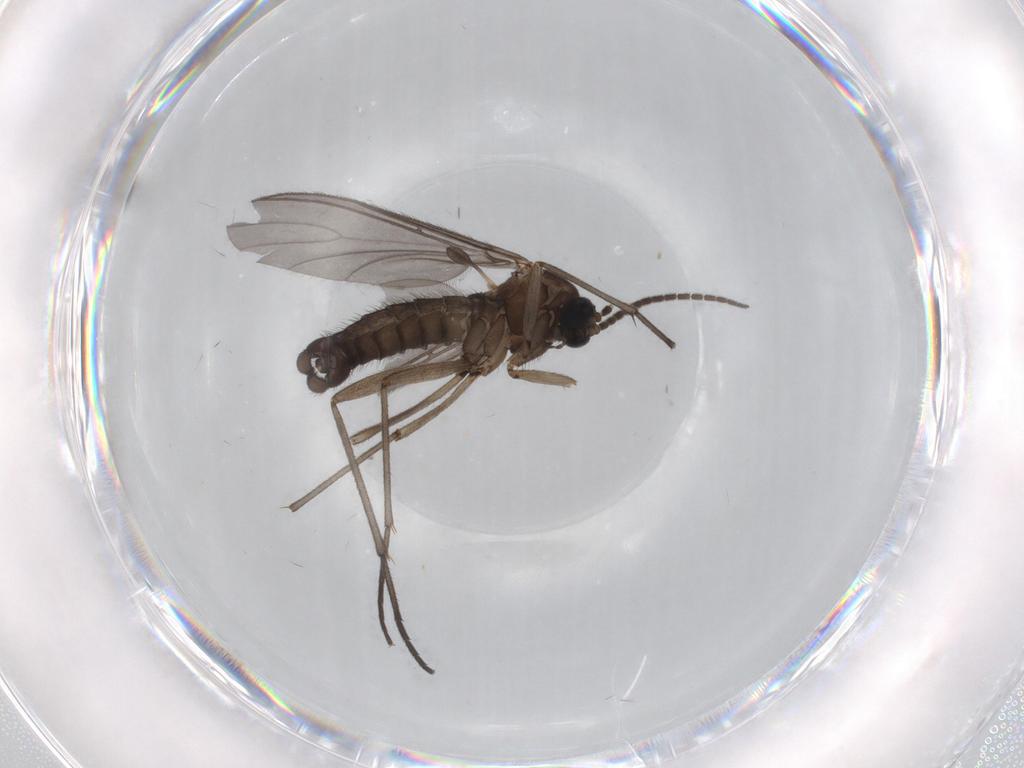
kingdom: Animalia
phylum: Arthropoda
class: Insecta
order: Diptera
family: Sciaridae
